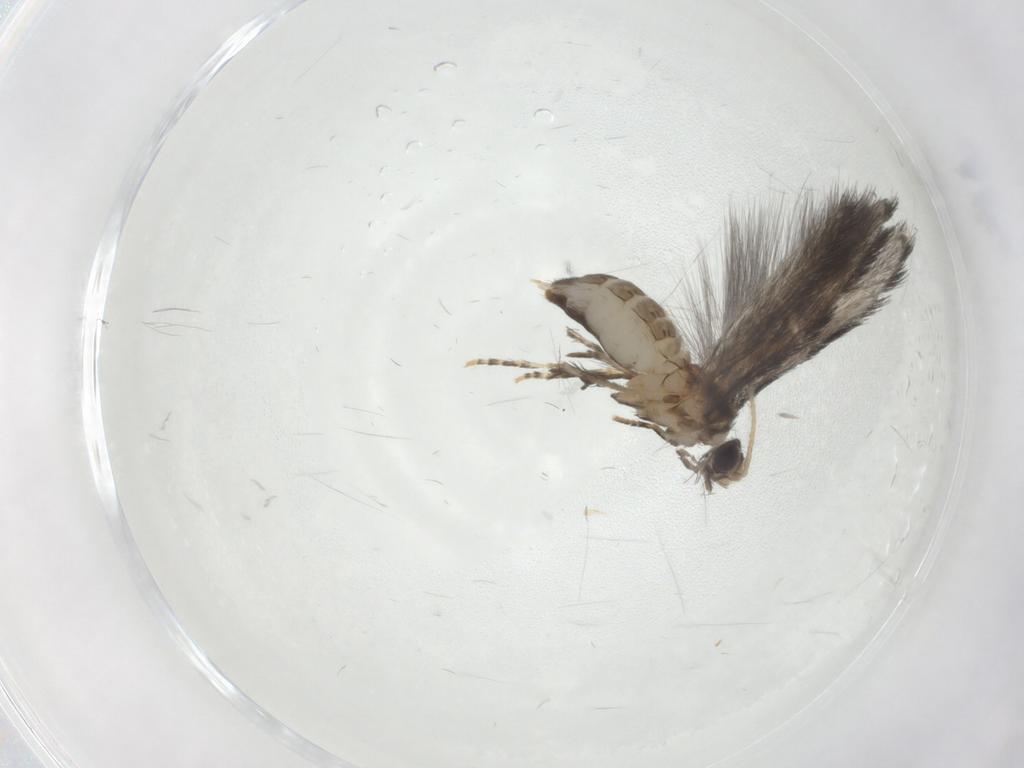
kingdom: Animalia
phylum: Arthropoda
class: Insecta
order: Trichoptera
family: Hydroptilidae
